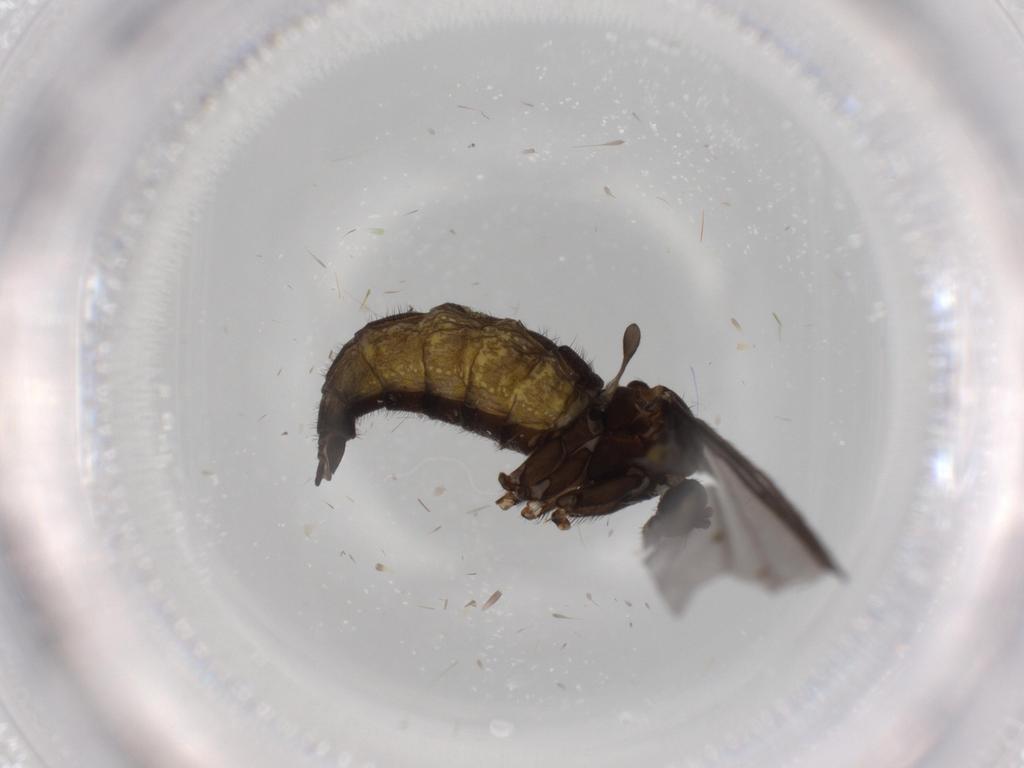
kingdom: Animalia
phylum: Arthropoda
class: Insecta
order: Diptera
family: Sciaridae
